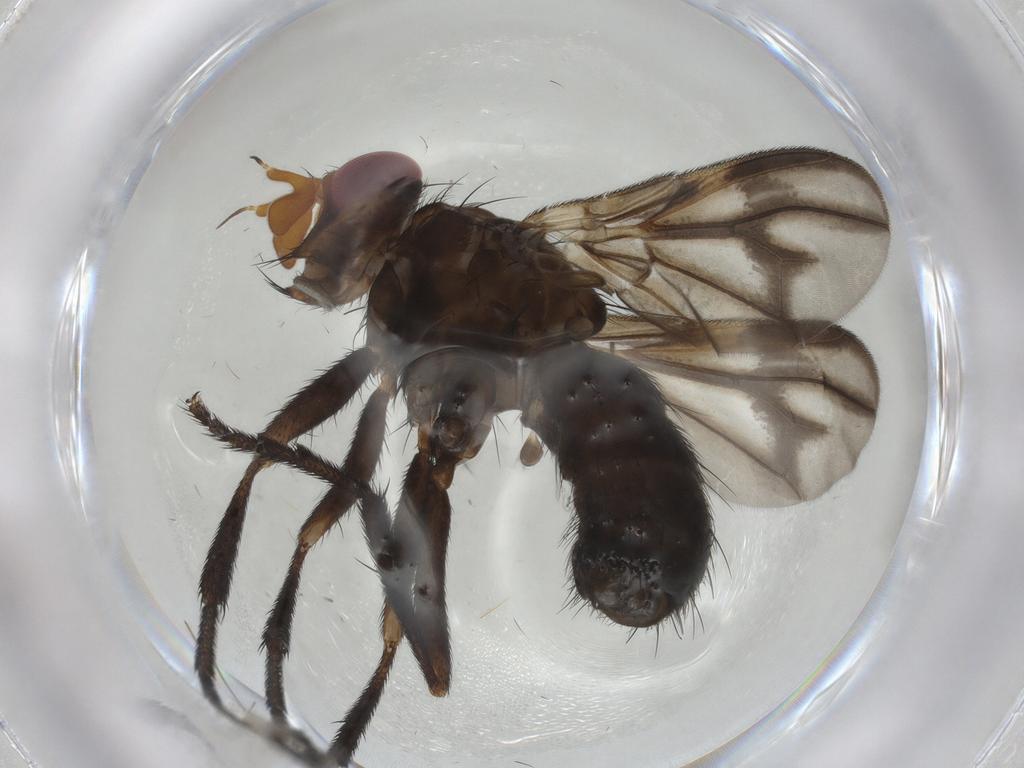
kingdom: Animalia
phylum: Arthropoda
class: Insecta
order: Diptera
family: Calliphoridae
